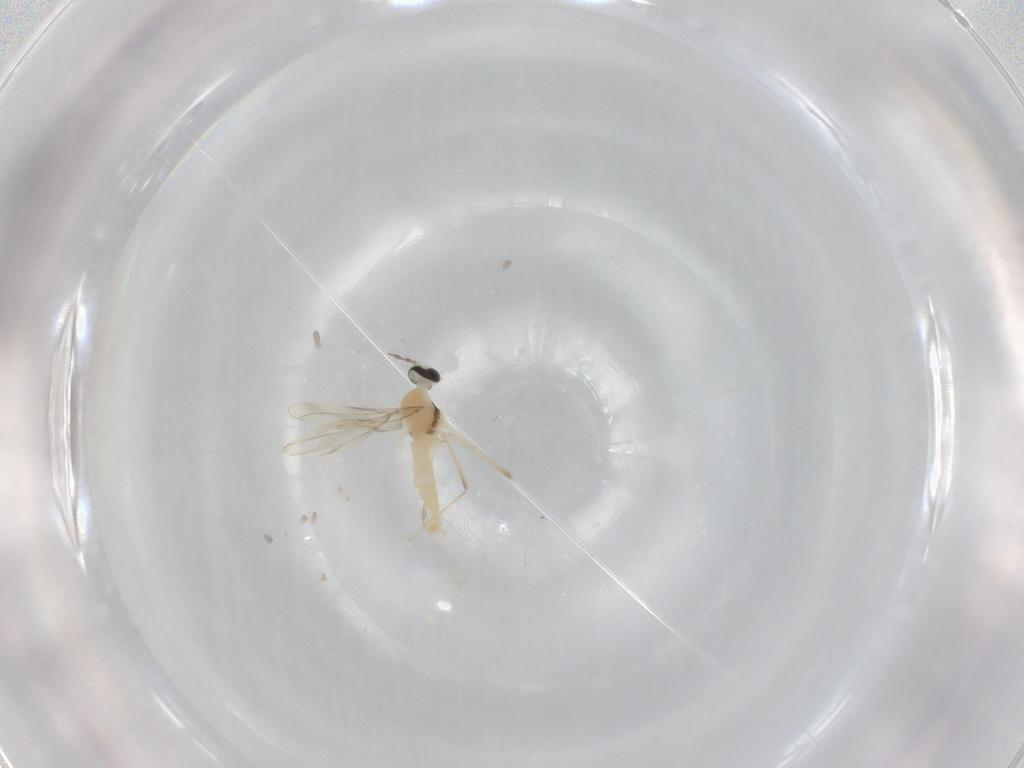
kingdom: Animalia
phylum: Arthropoda
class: Insecta
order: Diptera
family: Cecidomyiidae
